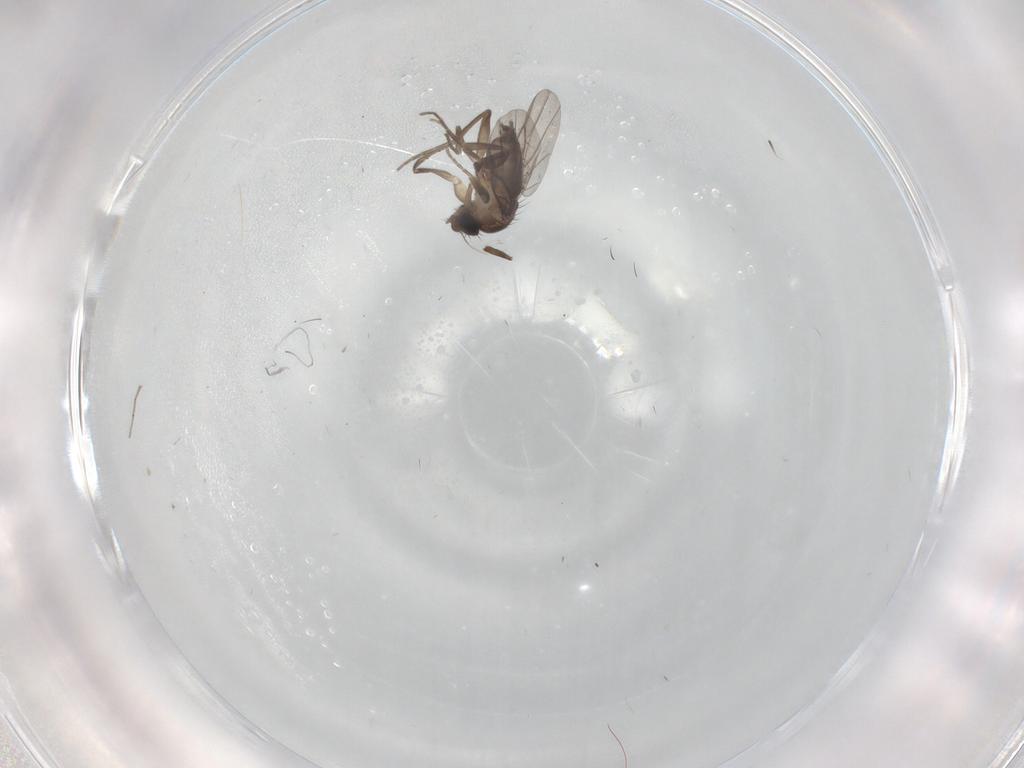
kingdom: Animalia
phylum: Arthropoda
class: Insecta
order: Diptera
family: Phoridae
